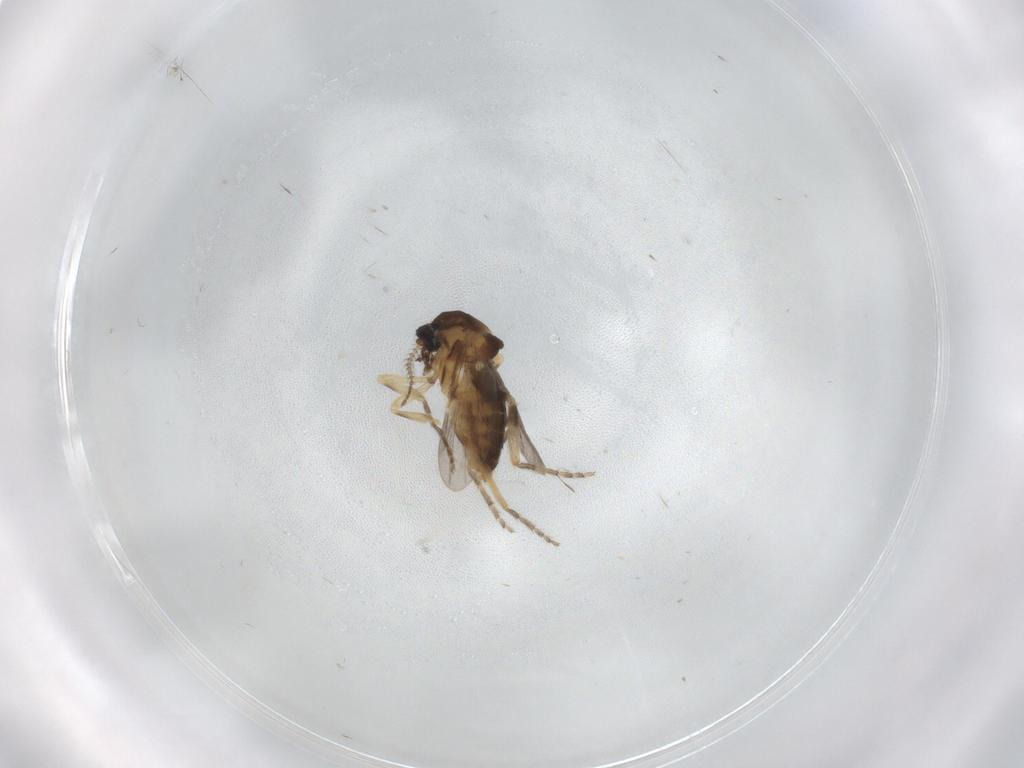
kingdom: Animalia
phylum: Arthropoda
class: Insecta
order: Diptera
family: Ceratopogonidae
